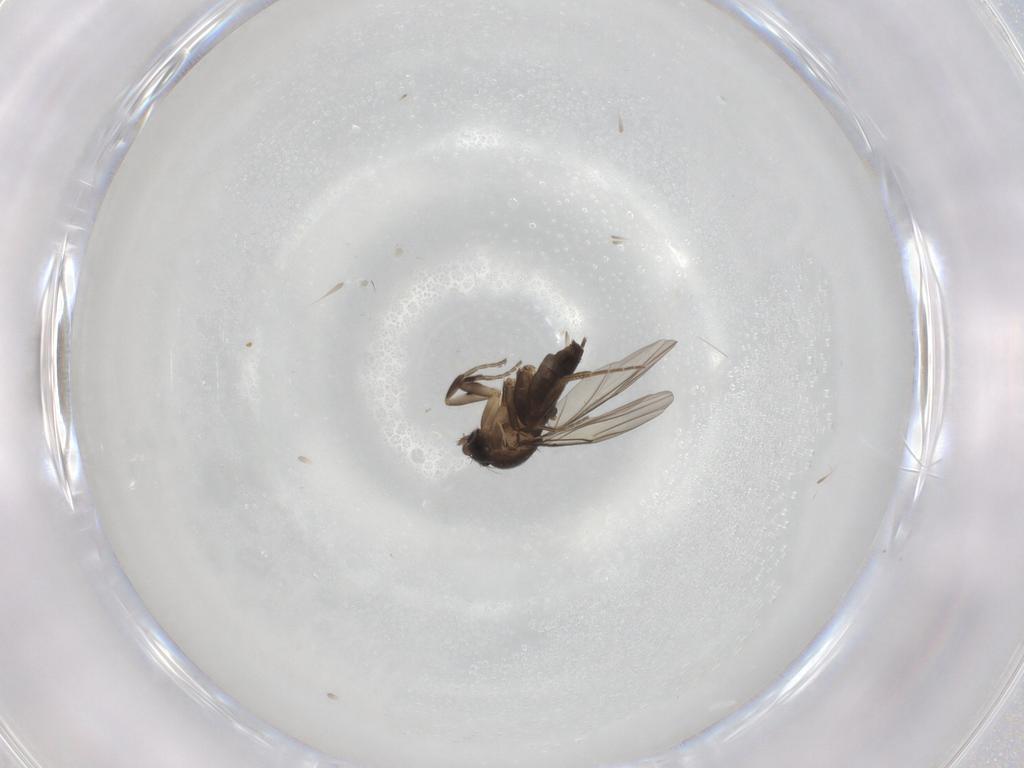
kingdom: Animalia
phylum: Arthropoda
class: Insecta
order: Diptera
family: Phoridae
